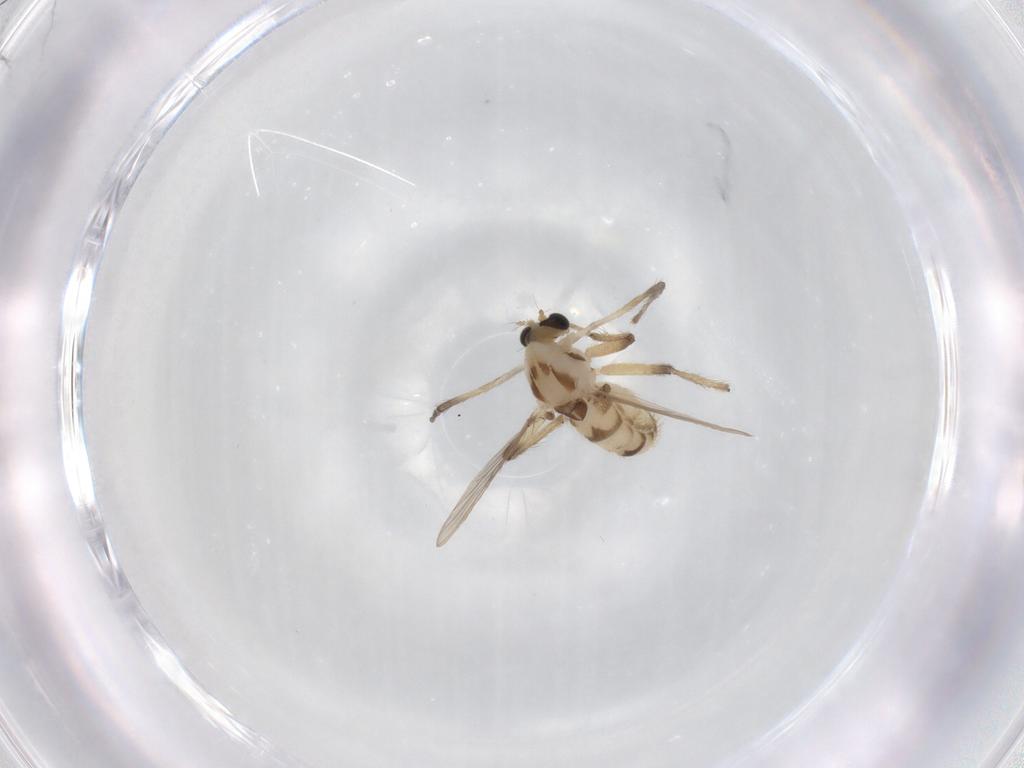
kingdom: Animalia
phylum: Arthropoda
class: Insecta
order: Diptera
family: Chironomidae
